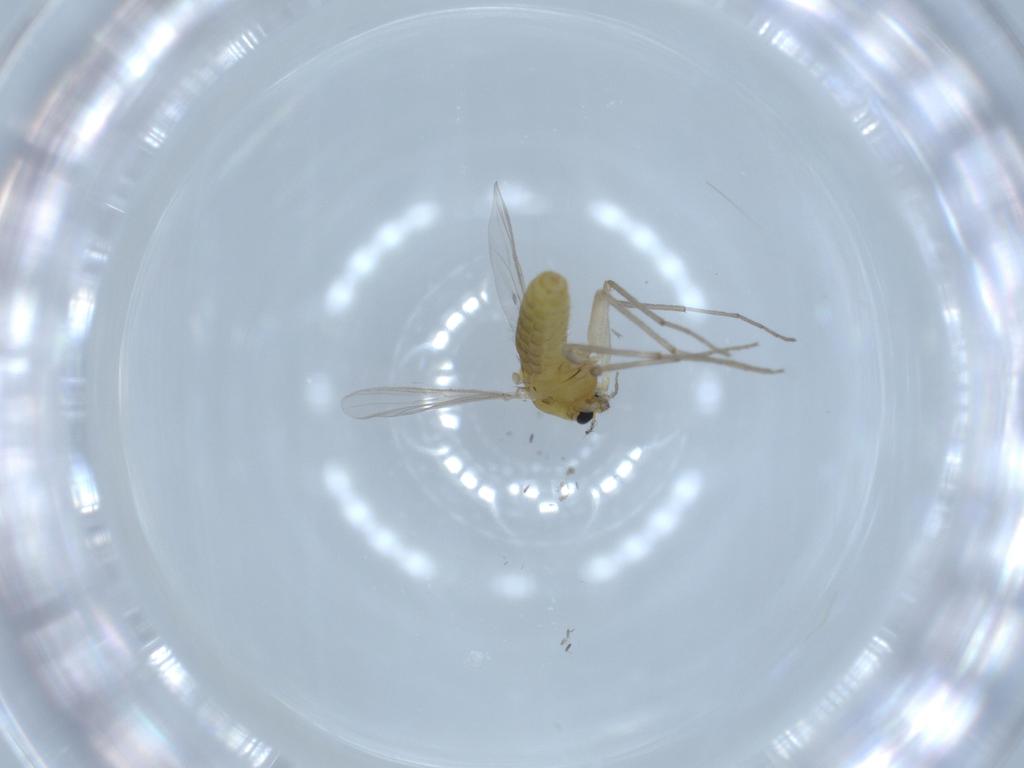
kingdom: Animalia
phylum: Arthropoda
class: Insecta
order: Diptera
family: Chironomidae
